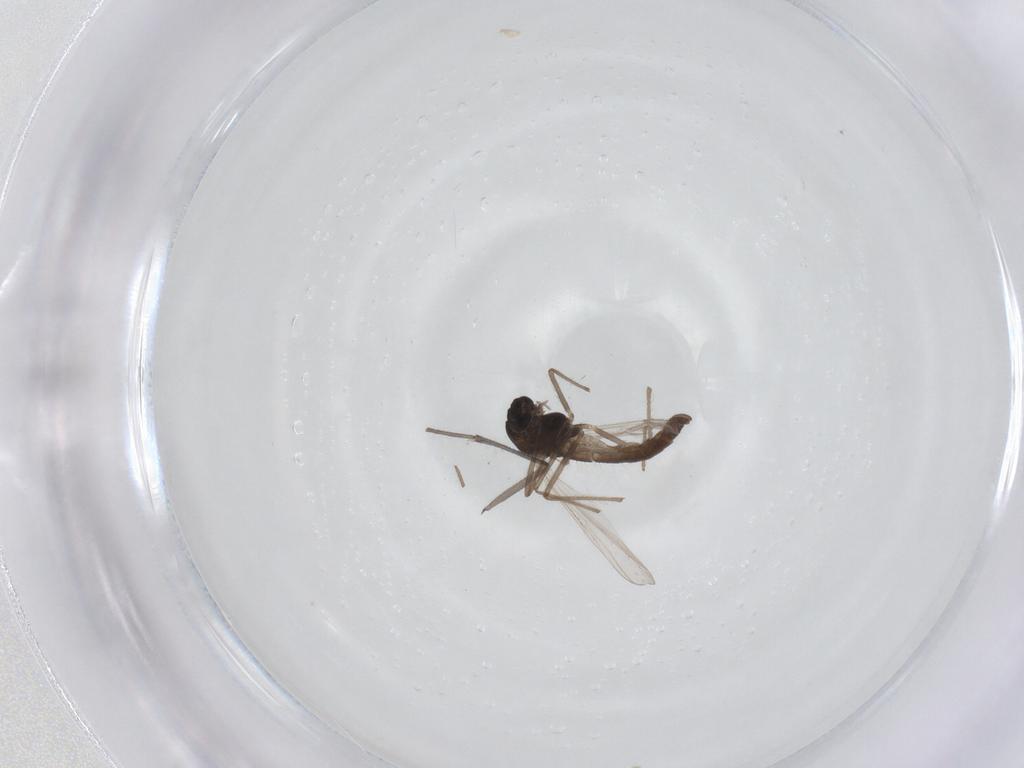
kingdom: Animalia
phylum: Arthropoda
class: Insecta
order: Diptera
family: Chironomidae
